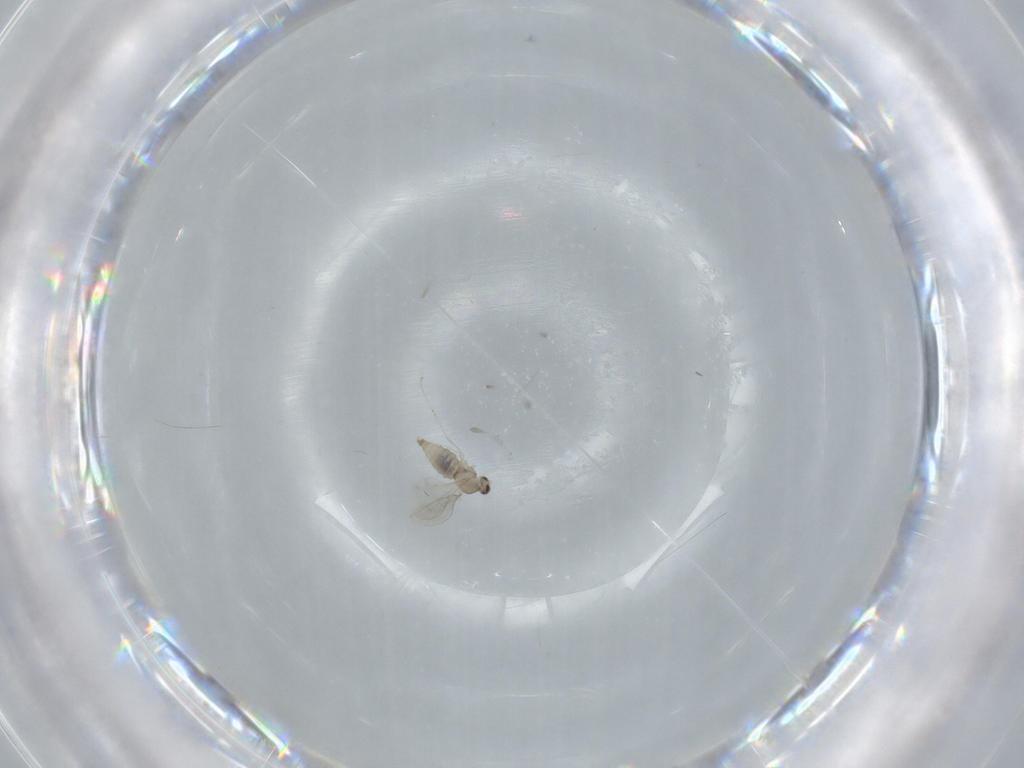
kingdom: Animalia
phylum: Arthropoda
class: Insecta
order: Diptera
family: Cecidomyiidae
